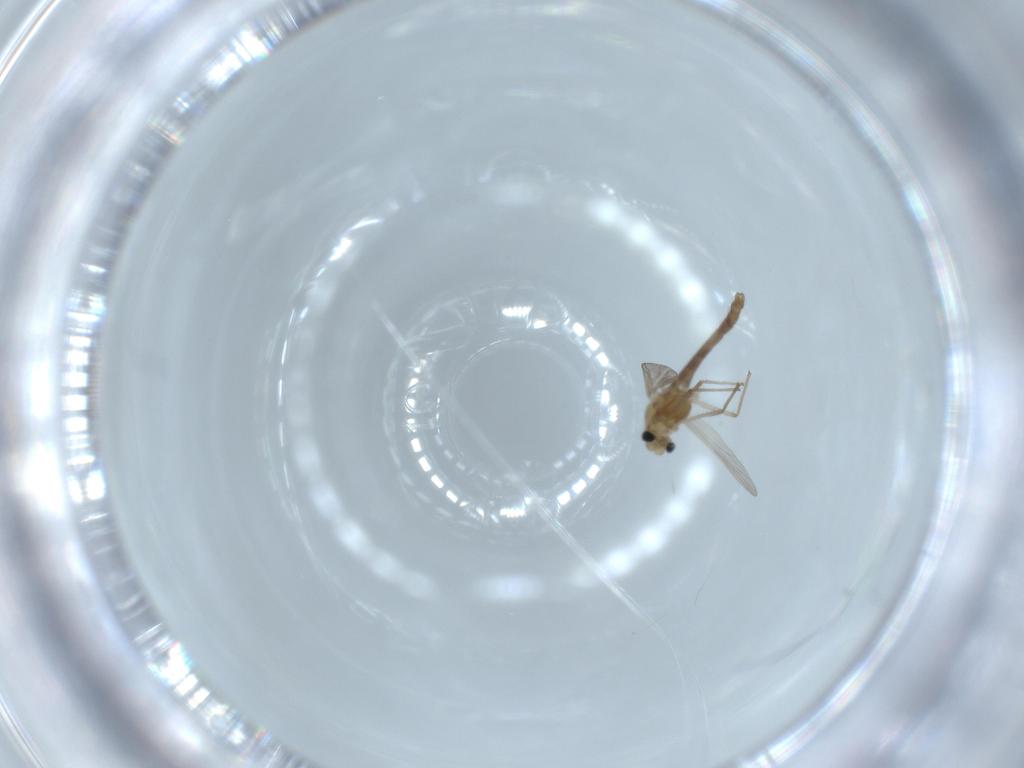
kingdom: Animalia
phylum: Arthropoda
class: Insecta
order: Diptera
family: Chironomidae
